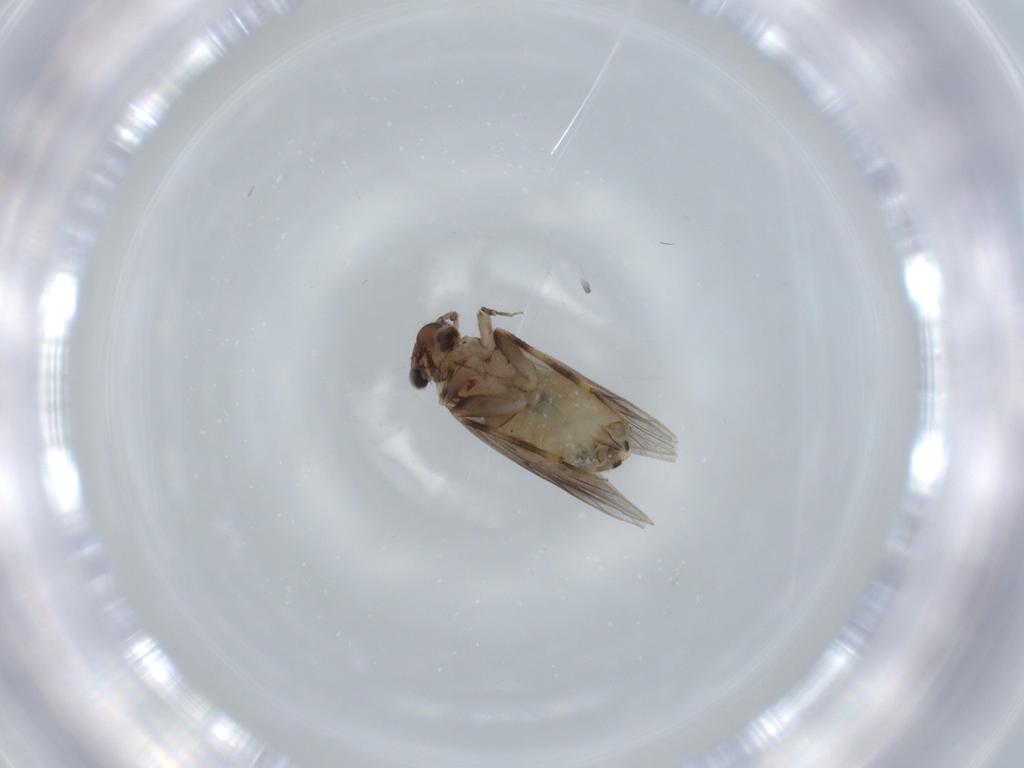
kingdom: Animalia
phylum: Arthropoda
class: Insecta
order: Psocodea
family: Lepidopsocidae
